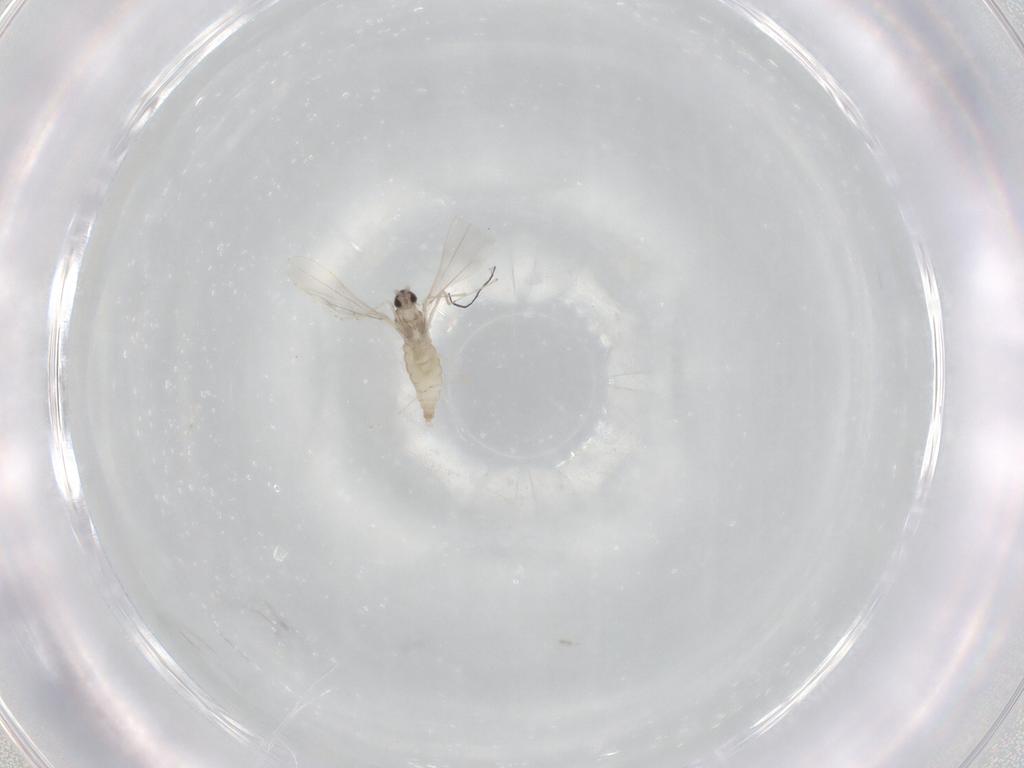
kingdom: Animalia
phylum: Arthropoda
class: Insecta
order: Diptera
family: Cecidomyiidae
